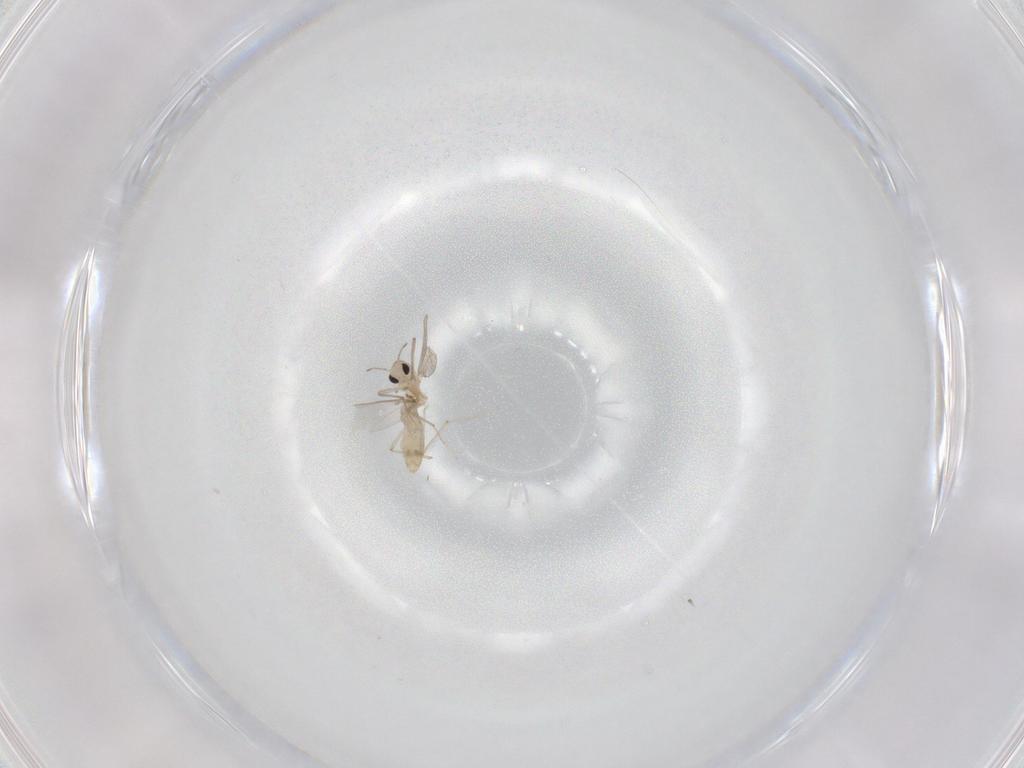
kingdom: Animalia
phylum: Arthropoda
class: Insecta
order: Diptera
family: Chironomidae
